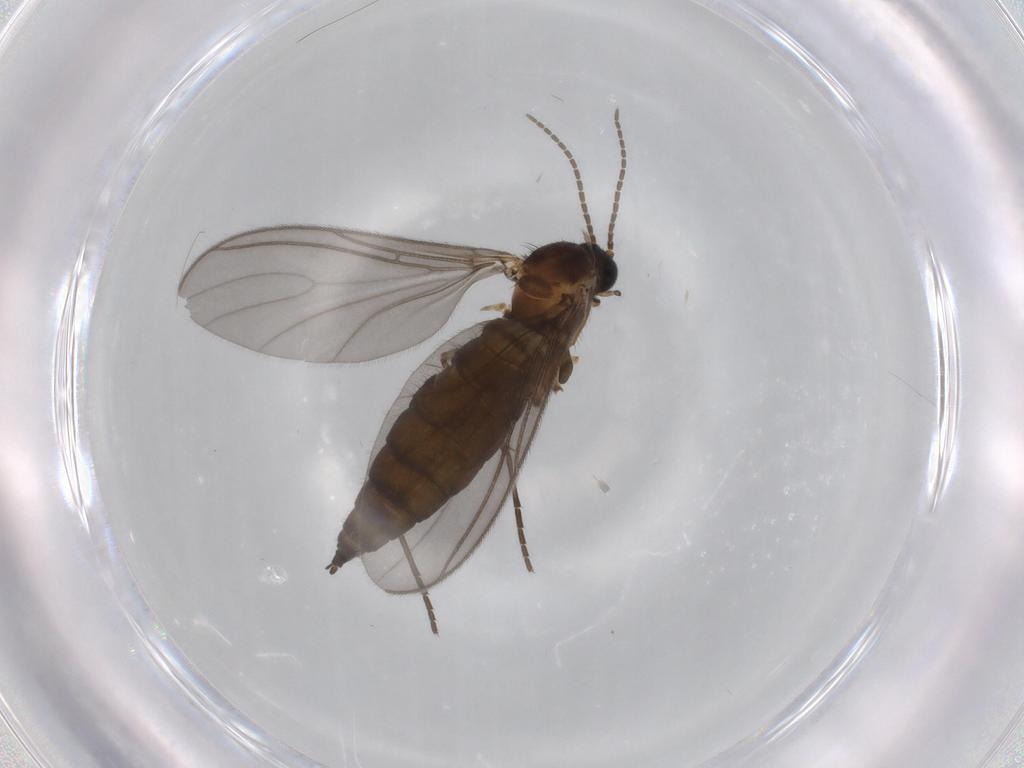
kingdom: Animalia
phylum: Arthropoda
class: Insecta
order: Diptera
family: Sciaridae
